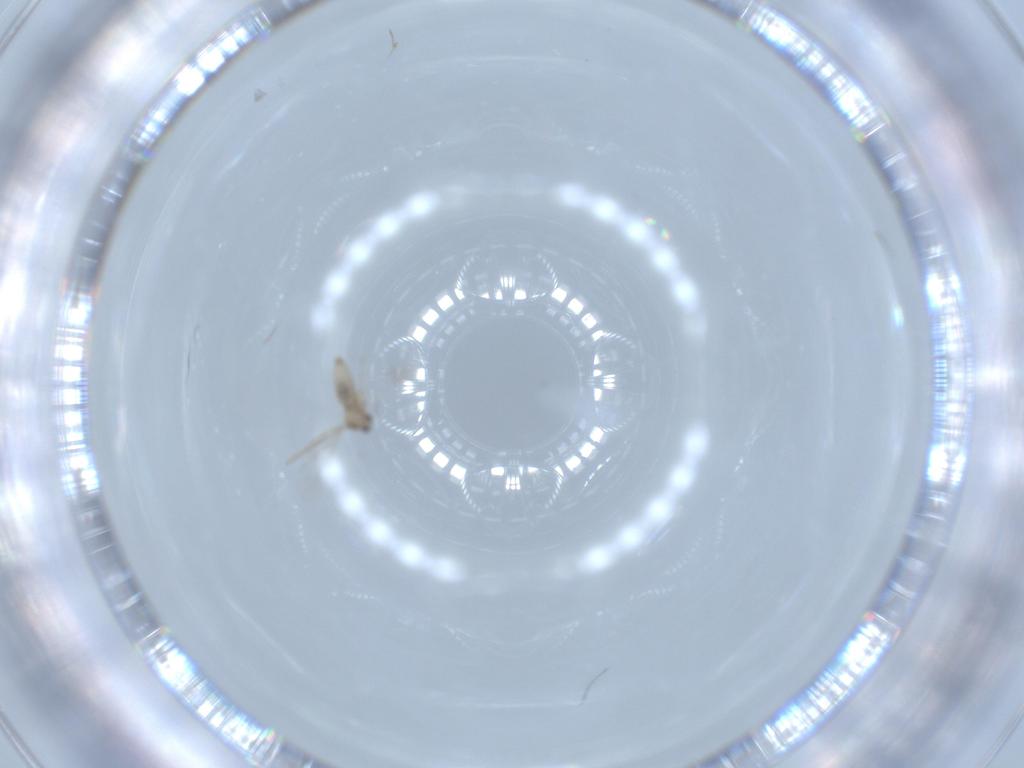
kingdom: Animalia
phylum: Arthropoda
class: Insecta
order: Diptera
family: Cecidomyiidae
